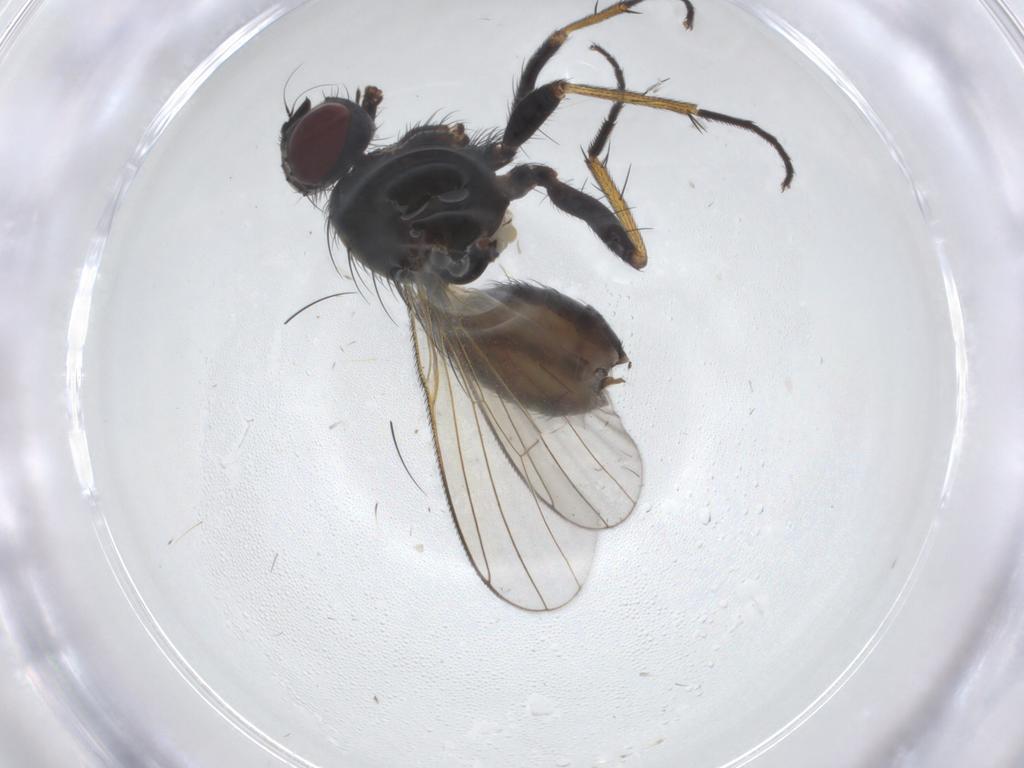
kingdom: Animalia
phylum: Arthropoda
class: Insecta
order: Diptera
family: Muscidae
